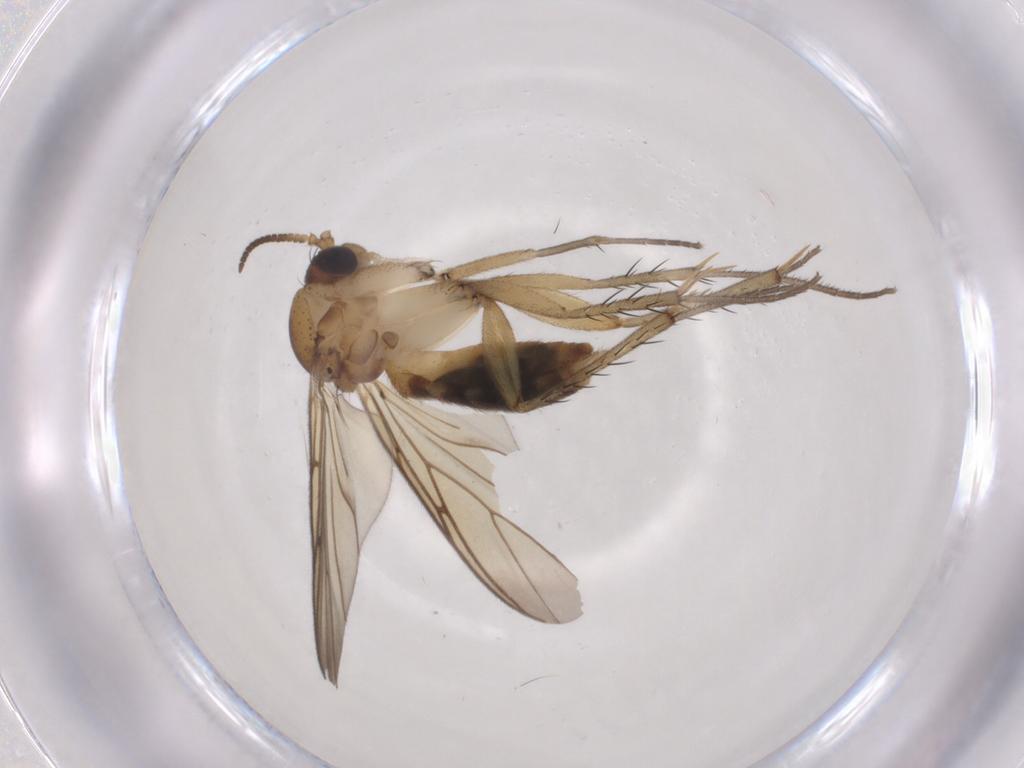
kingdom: Animalia
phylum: Arthropoda
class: Insecta
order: Diptera
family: Mycetophilidae
